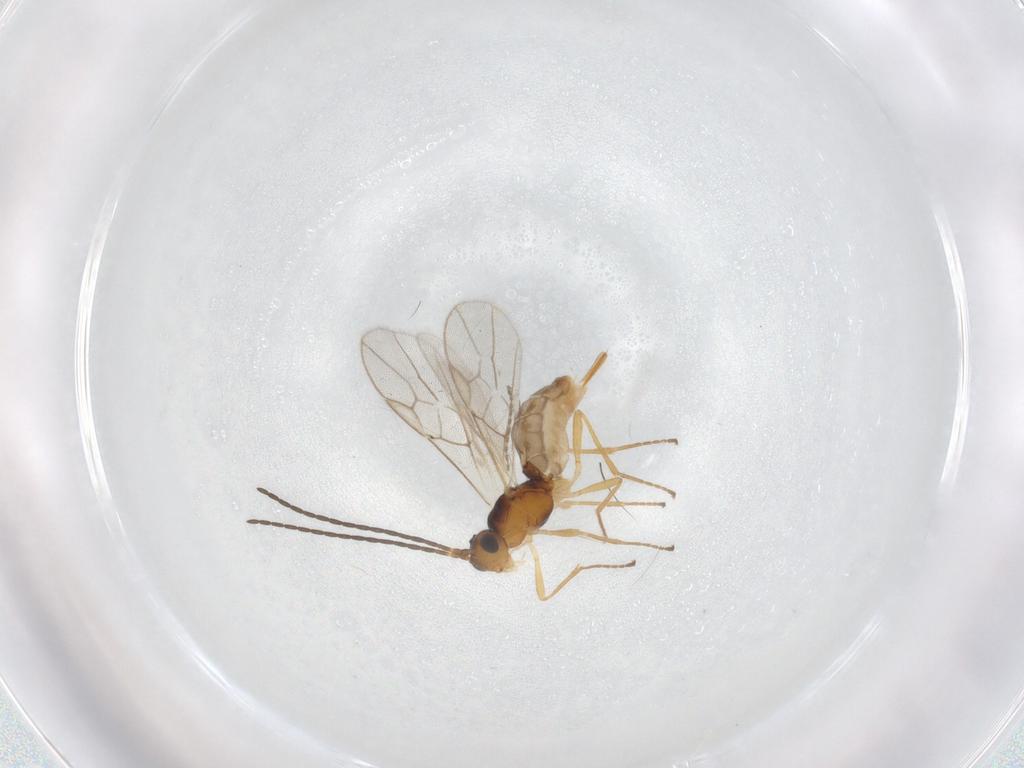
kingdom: Animalia
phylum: Arthropoda
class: Insecta
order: Hymenoptera
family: Braconidae
